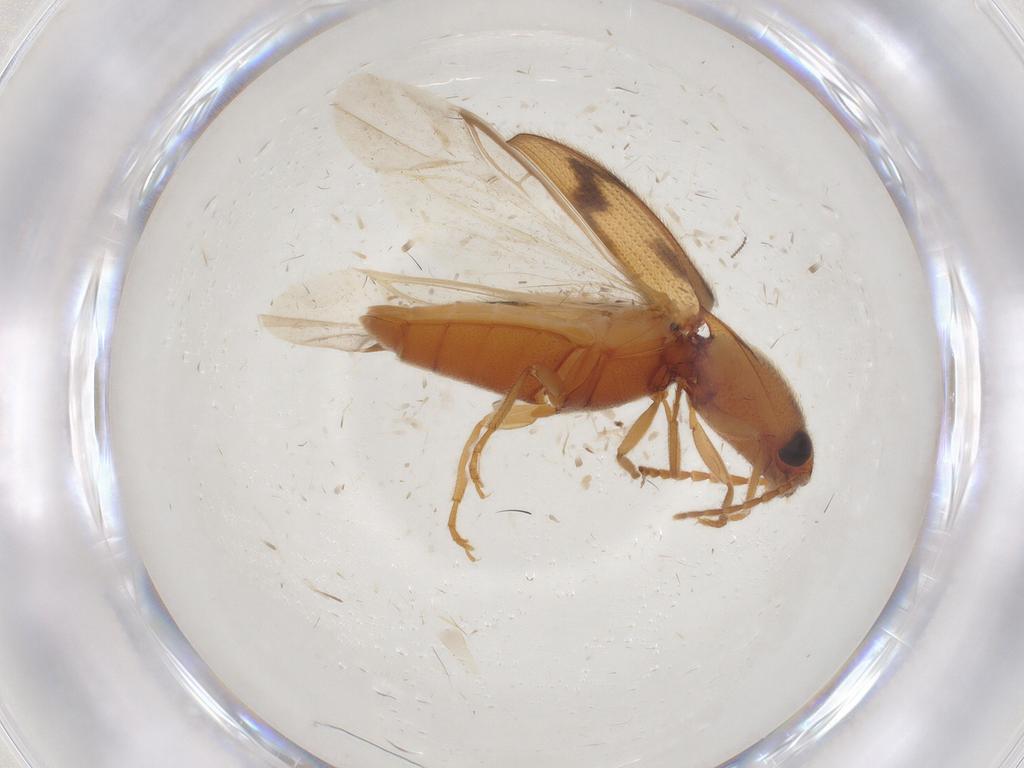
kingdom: Animalia
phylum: Arthropoda
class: Insecta
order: Coleoptera
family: Elateridae
